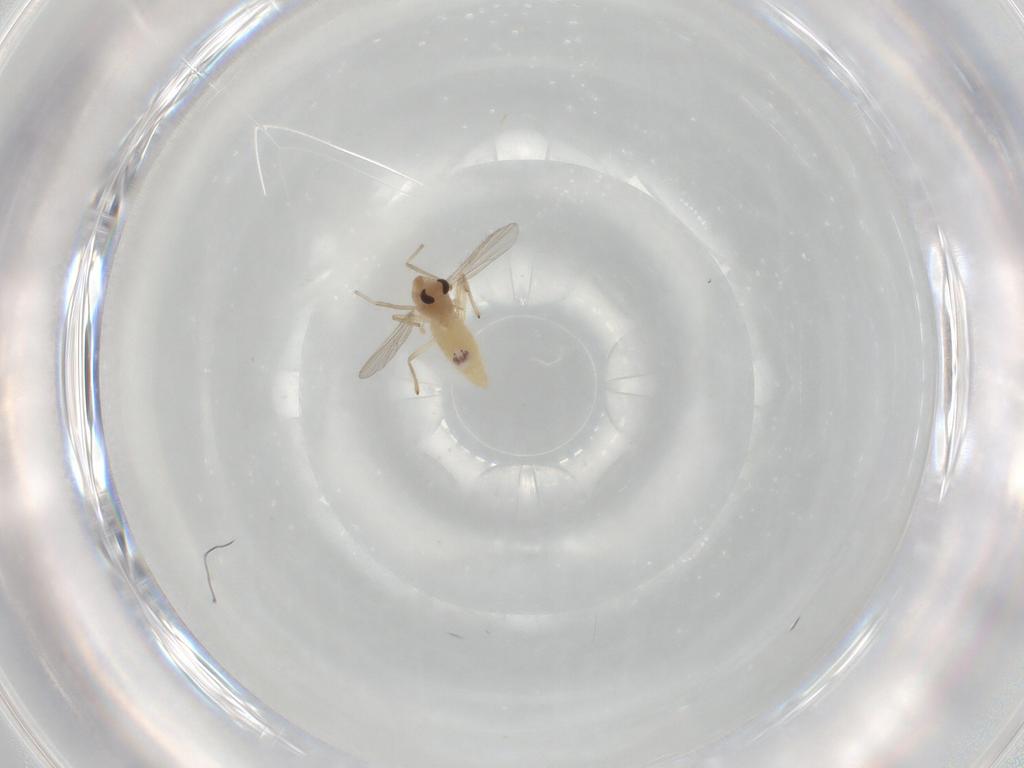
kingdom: Animalia
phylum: Arthropoda
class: Insecta
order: Diptera
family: Chironomidae
